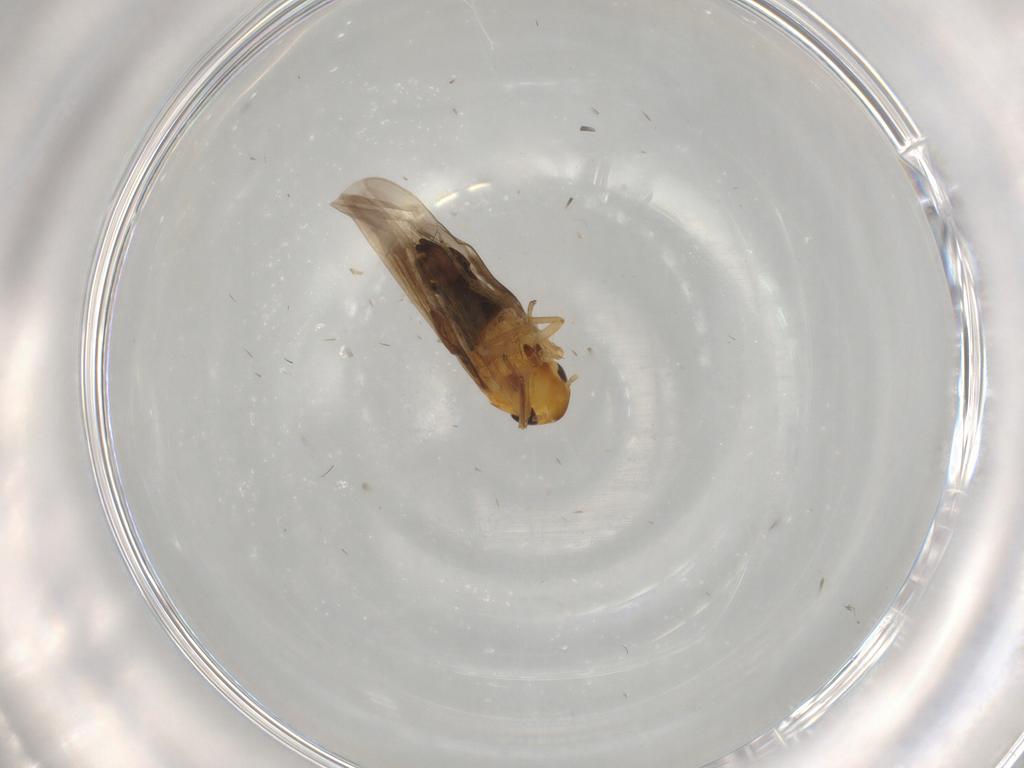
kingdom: Animalia
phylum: Arthropoda
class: Insecta
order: Hemiptera
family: Cicadellidae
